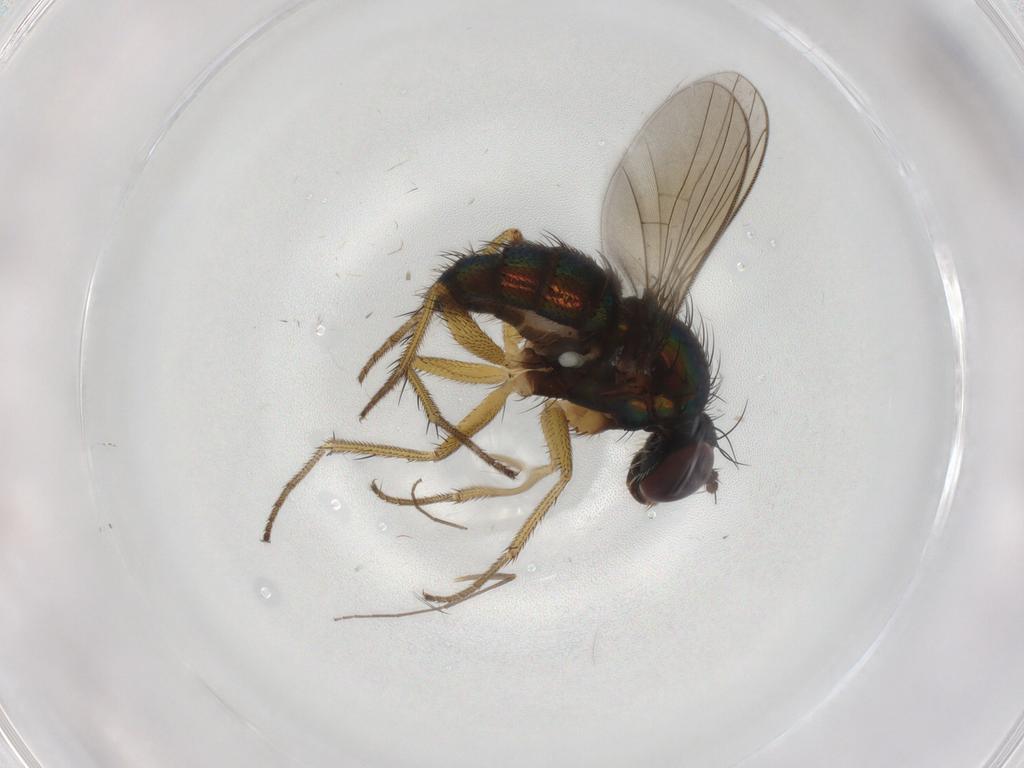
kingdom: Animalia
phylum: Arthropoda
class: Insecta
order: Diptera
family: Dolichopodidae
